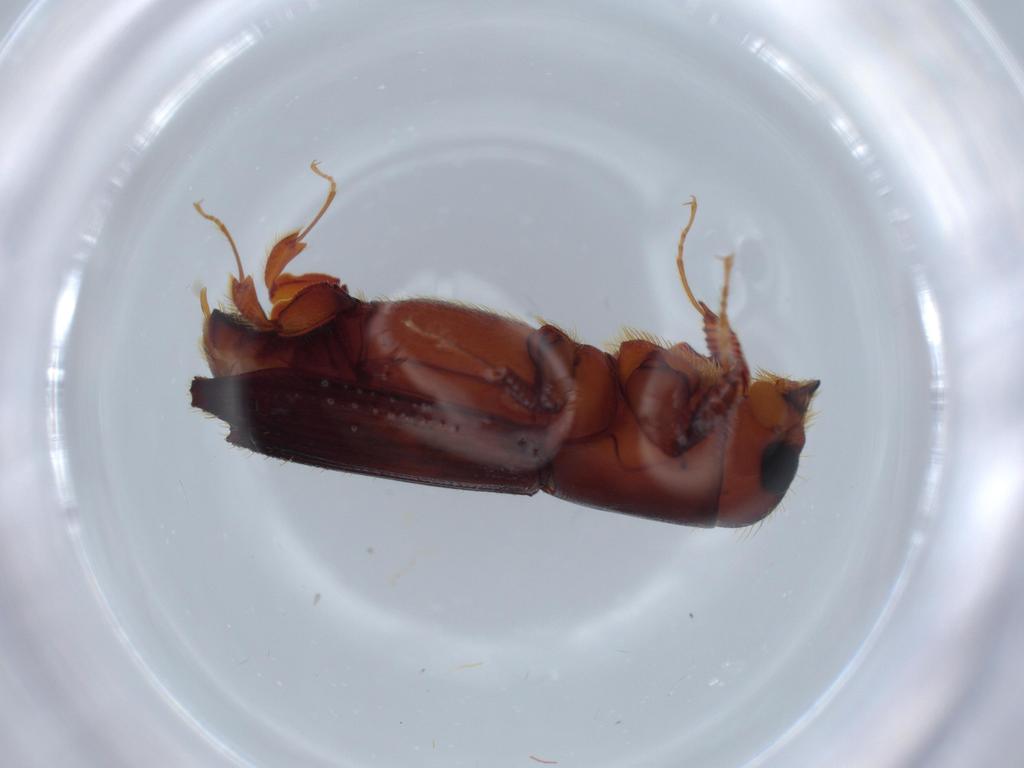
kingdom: Animalia
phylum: Arthropoda
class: Insecta
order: Coleoptera
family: Curculionidae
